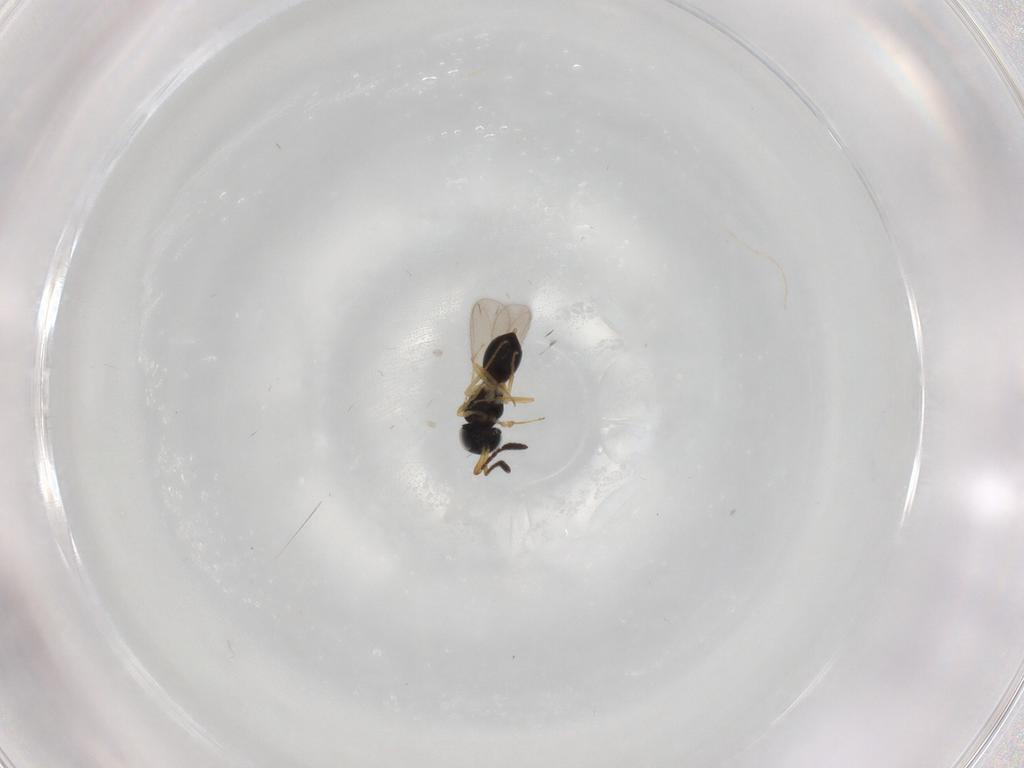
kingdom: Animalia
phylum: Arthropoda
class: Insecta
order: Hymenoptera
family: Scelionidae
